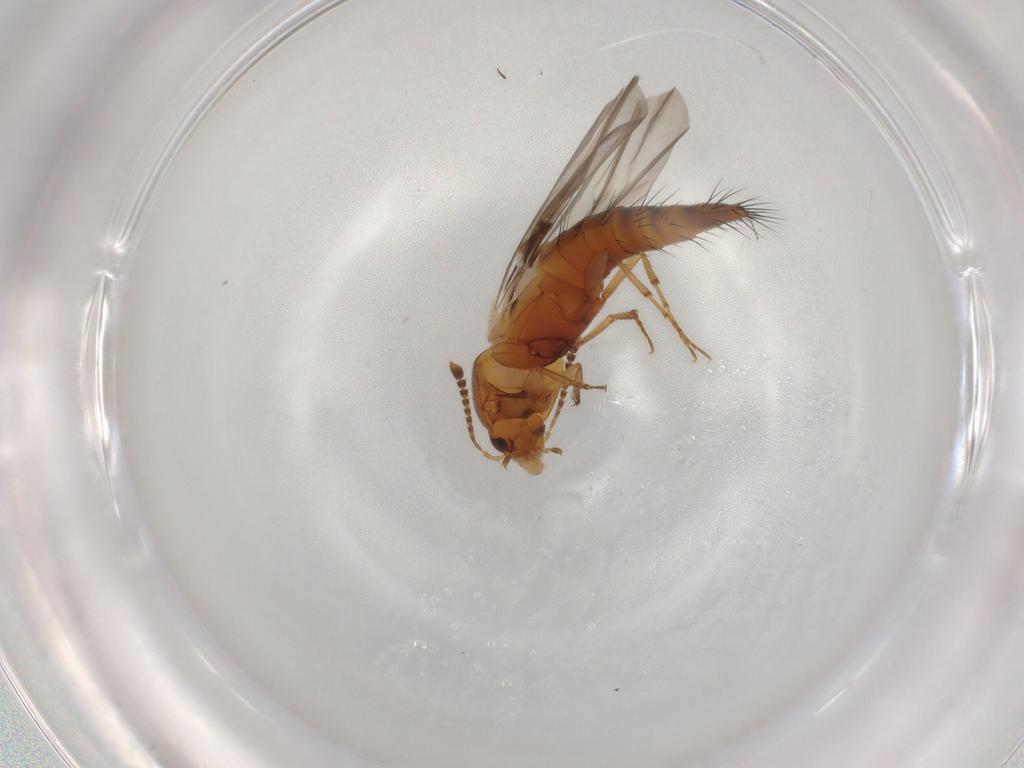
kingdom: Animalia
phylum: Arthropoda
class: Insecta
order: Coleoptera
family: Staphylinidae
